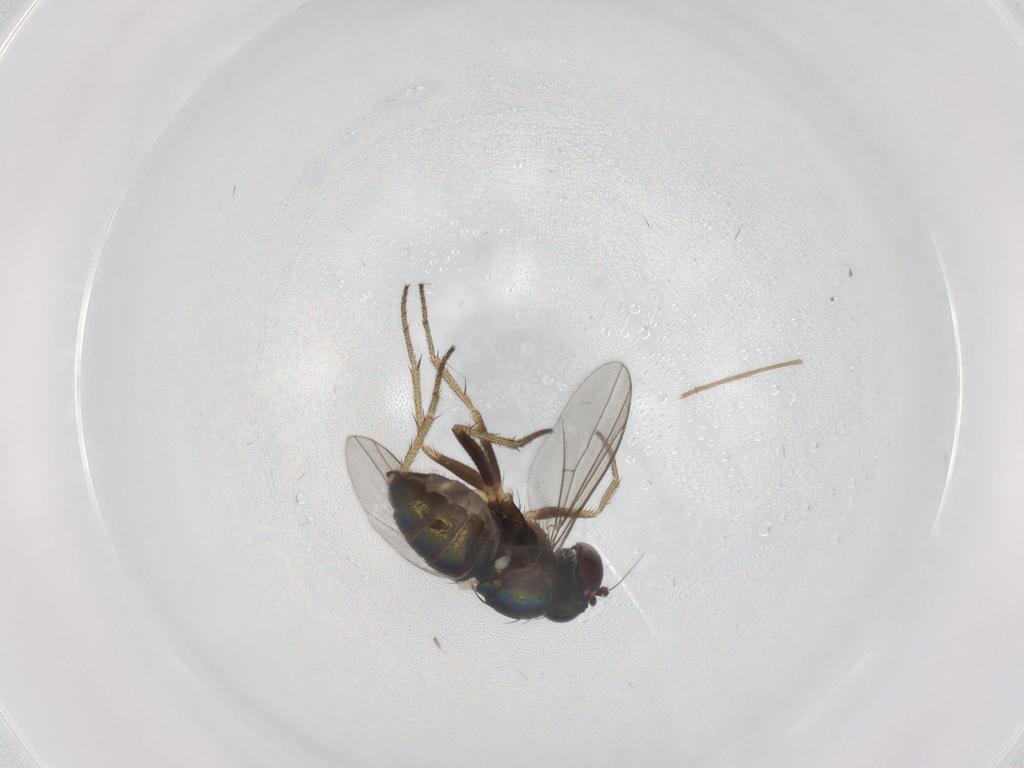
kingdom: Animalia
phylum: Arthropoda
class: Insecta
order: Diptera
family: Dolichopodidae
